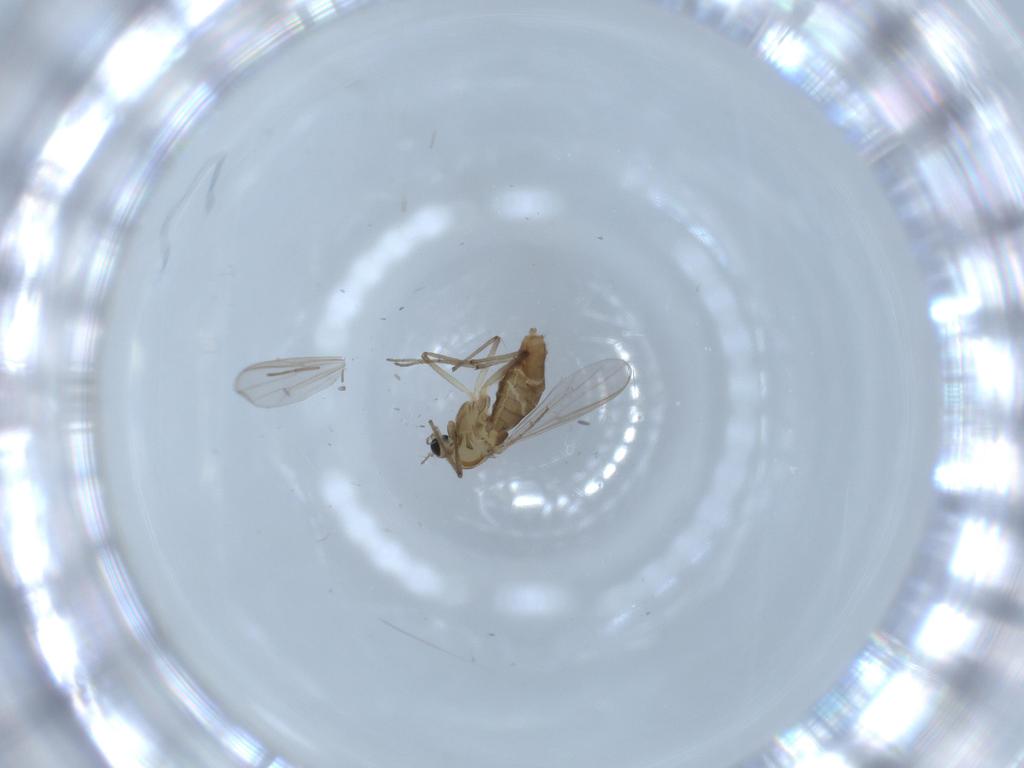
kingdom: Animalia
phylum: Arthropoda
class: Insecta
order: Diptera
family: Chironomidae
